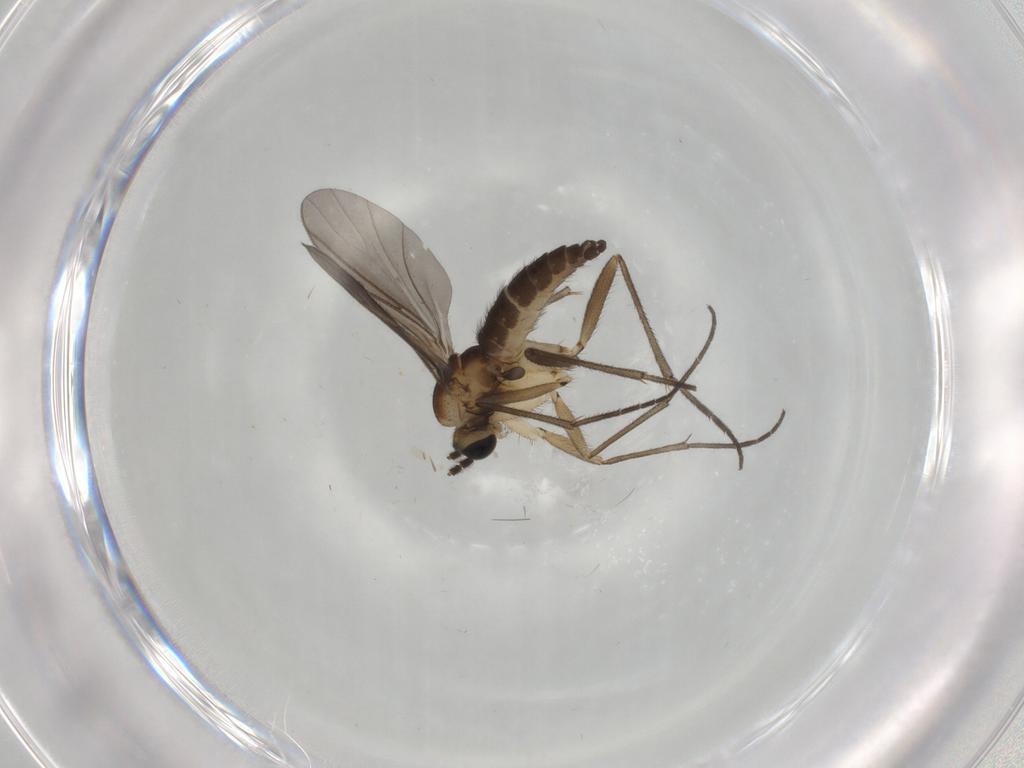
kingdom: Animalia
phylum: Arthropoda
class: Insecta
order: Diptera
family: Sciaridae
